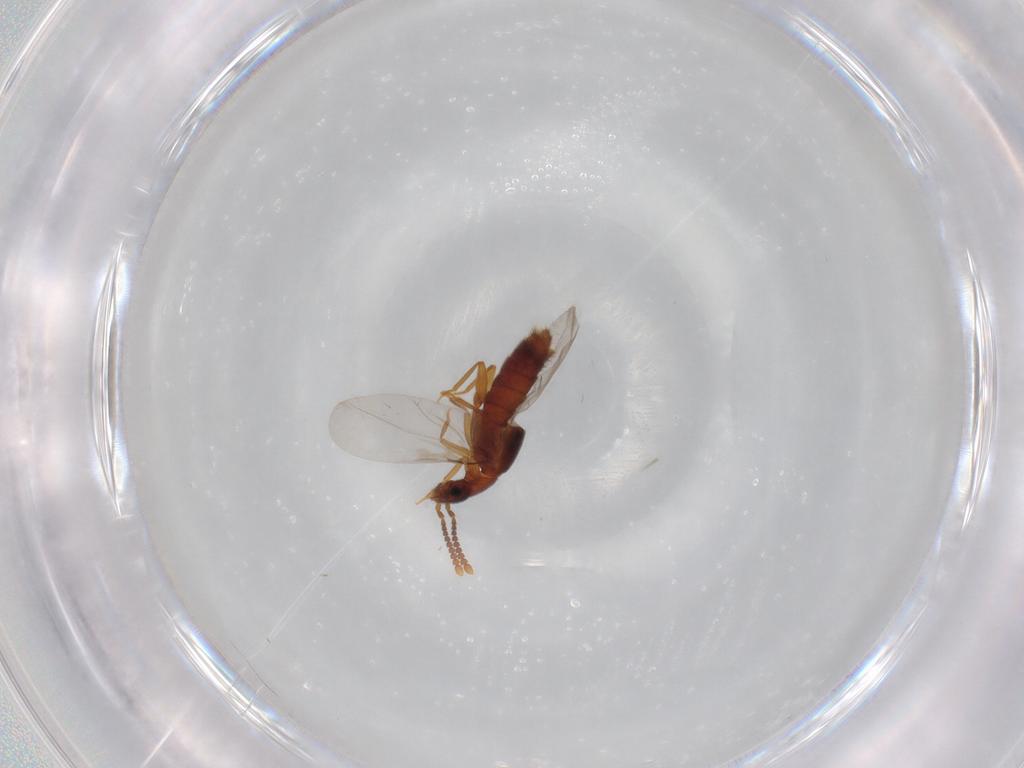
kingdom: Animalia
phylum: Arthropoda
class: Insecta
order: Coleoptera
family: Staphylinidae
